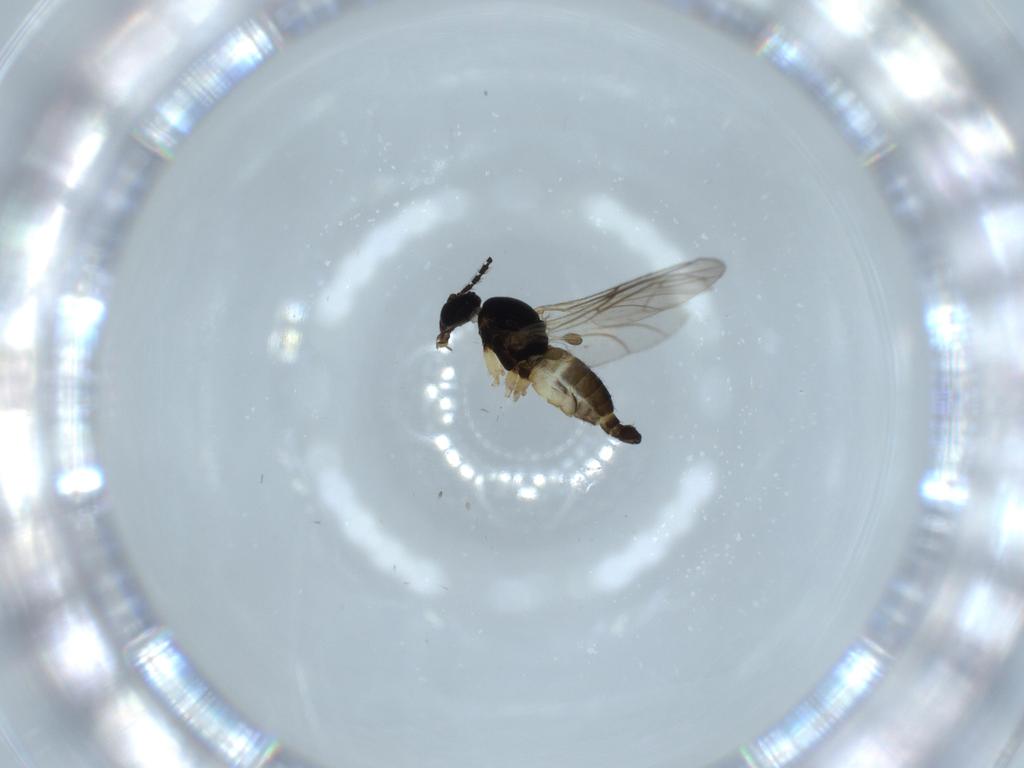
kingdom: Animalia
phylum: Arthropoda
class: Insecta
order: Diptera
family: Sciaridae
